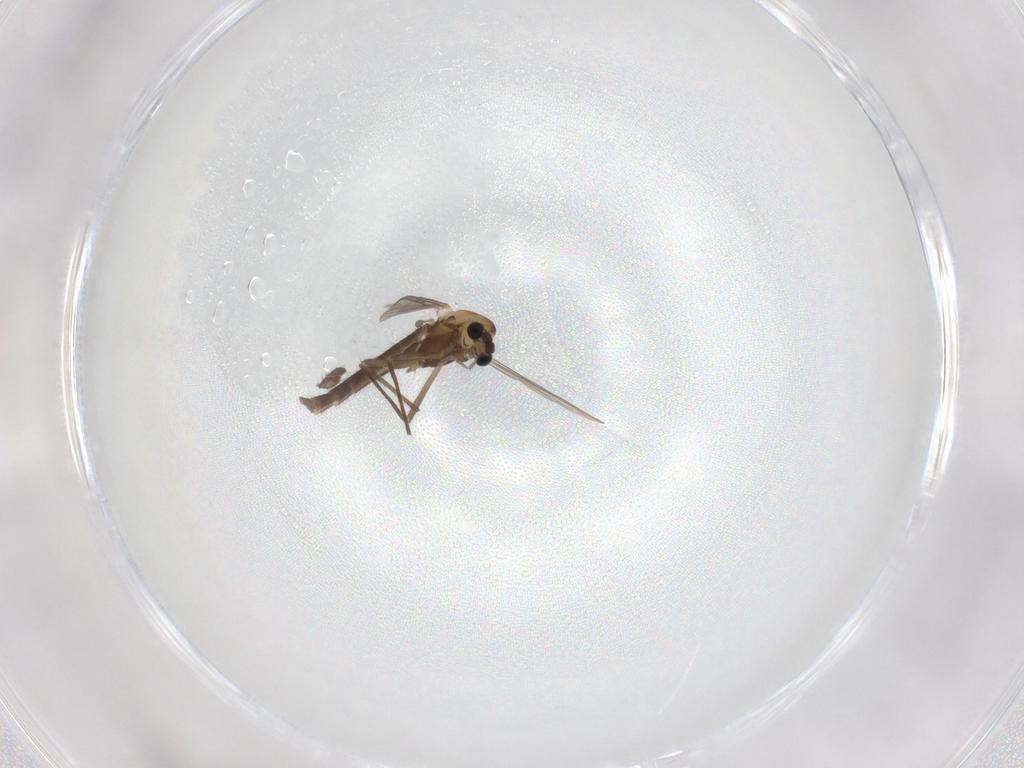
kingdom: Animalia
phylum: Arthropoda
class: Insecta
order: Diptera
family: Chironomidae
